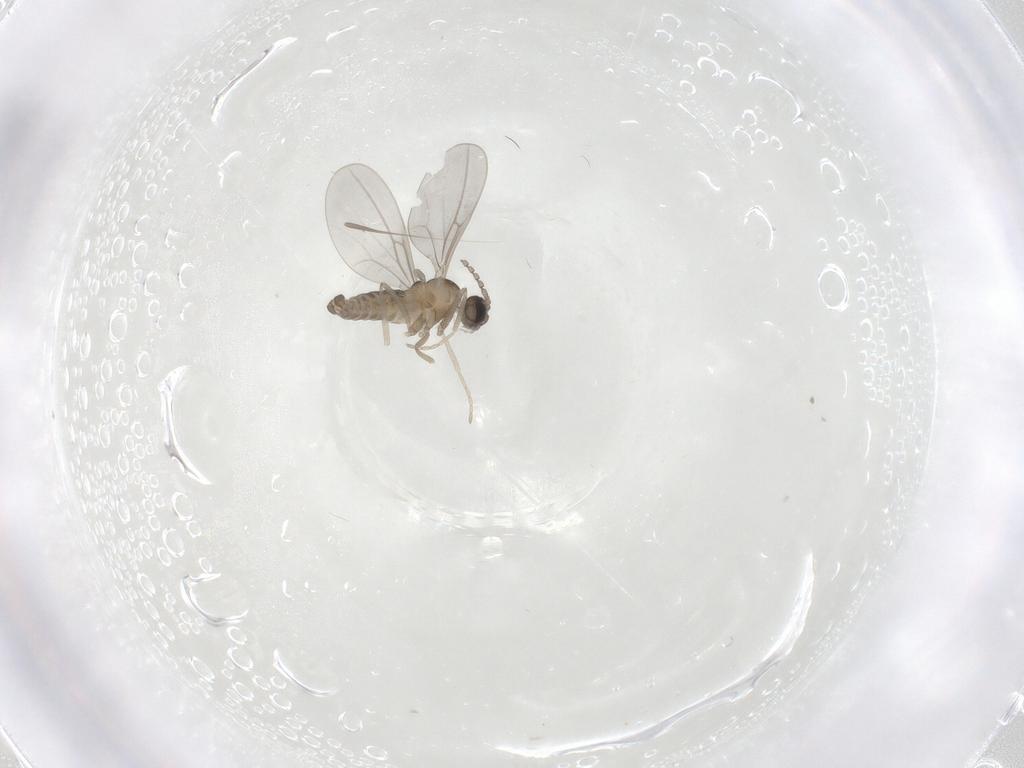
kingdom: Animalia
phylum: Arthropoda
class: Insecta
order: Diptera
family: Cecidomyiidae
